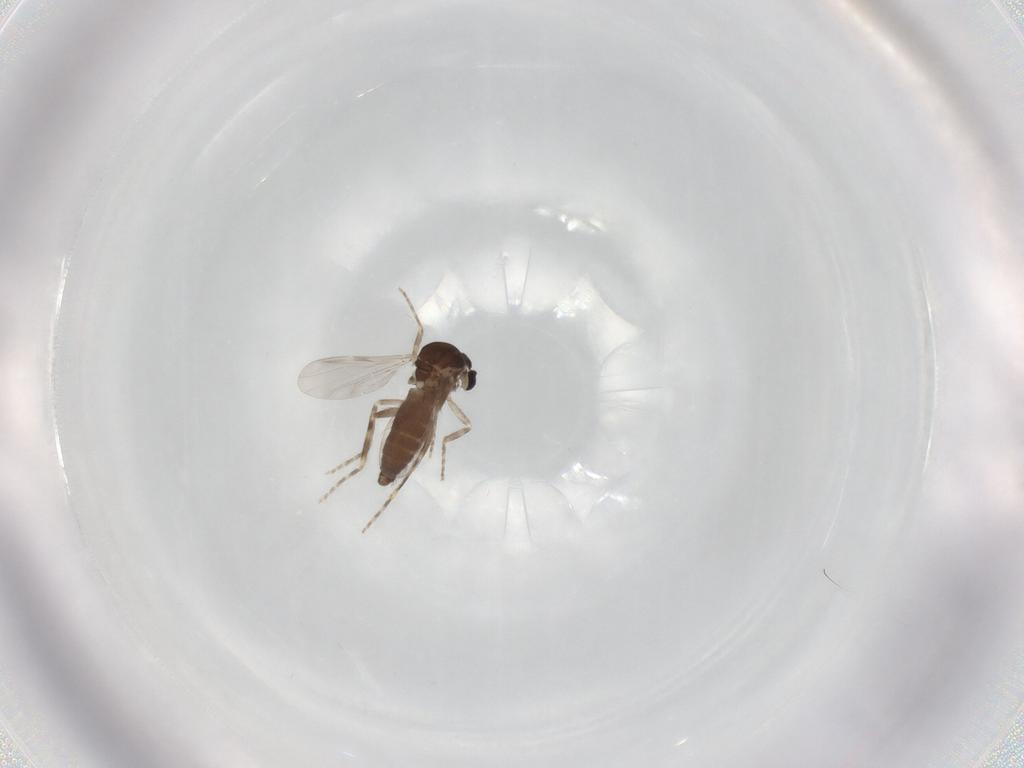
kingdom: Animalia
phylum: Arthropoda
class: Insecta
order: Diptera
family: Ceratopogonidae
